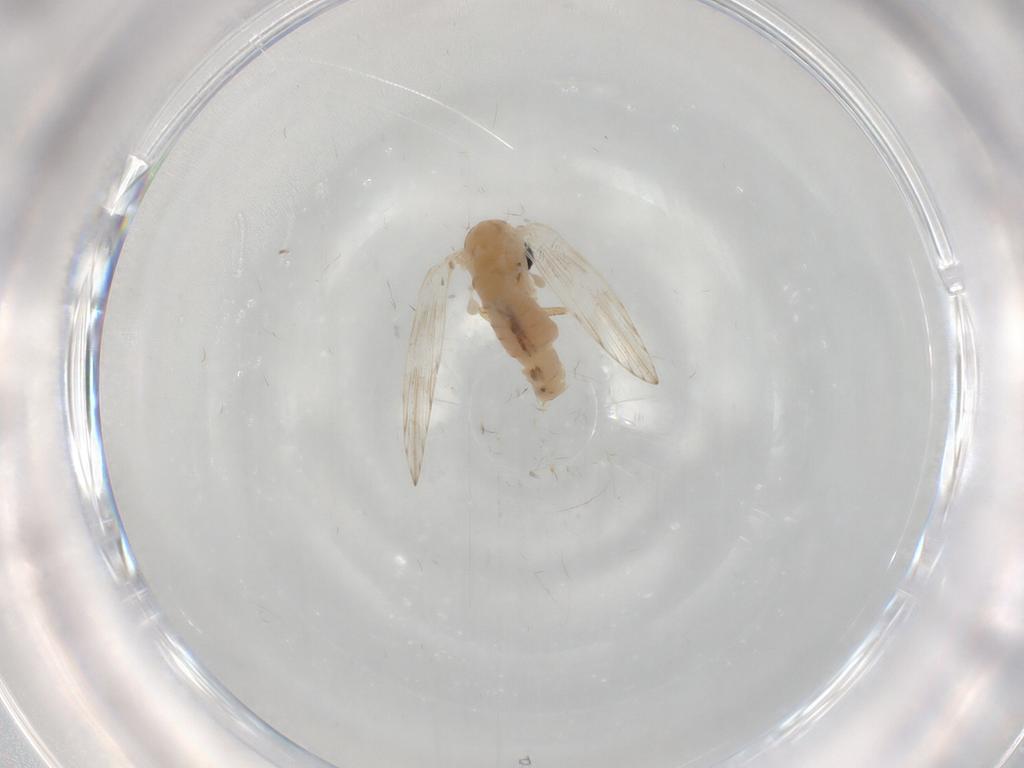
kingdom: Animalia
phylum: Arthropoda
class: Insecta
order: Diptera
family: Psychodidae
